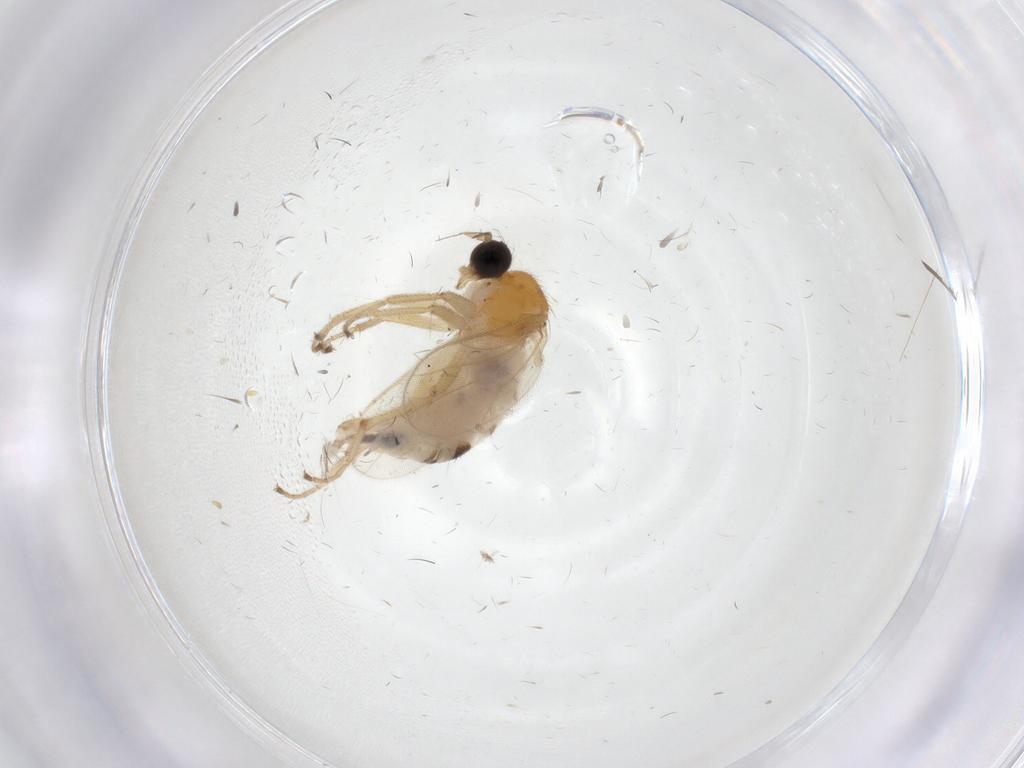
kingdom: Animalia
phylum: Arthropoda
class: Insecta
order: Diptera
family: Hybotidae
